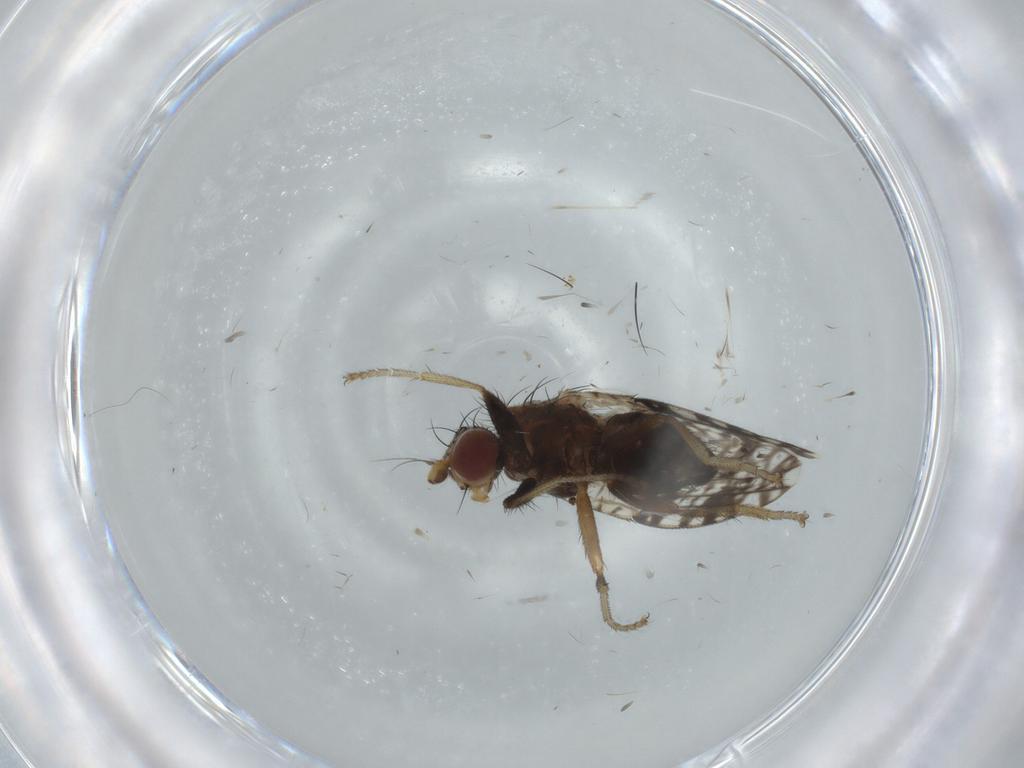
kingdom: Animalia
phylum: Arthropoda
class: Insecta
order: Diptera
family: Tephritidae
